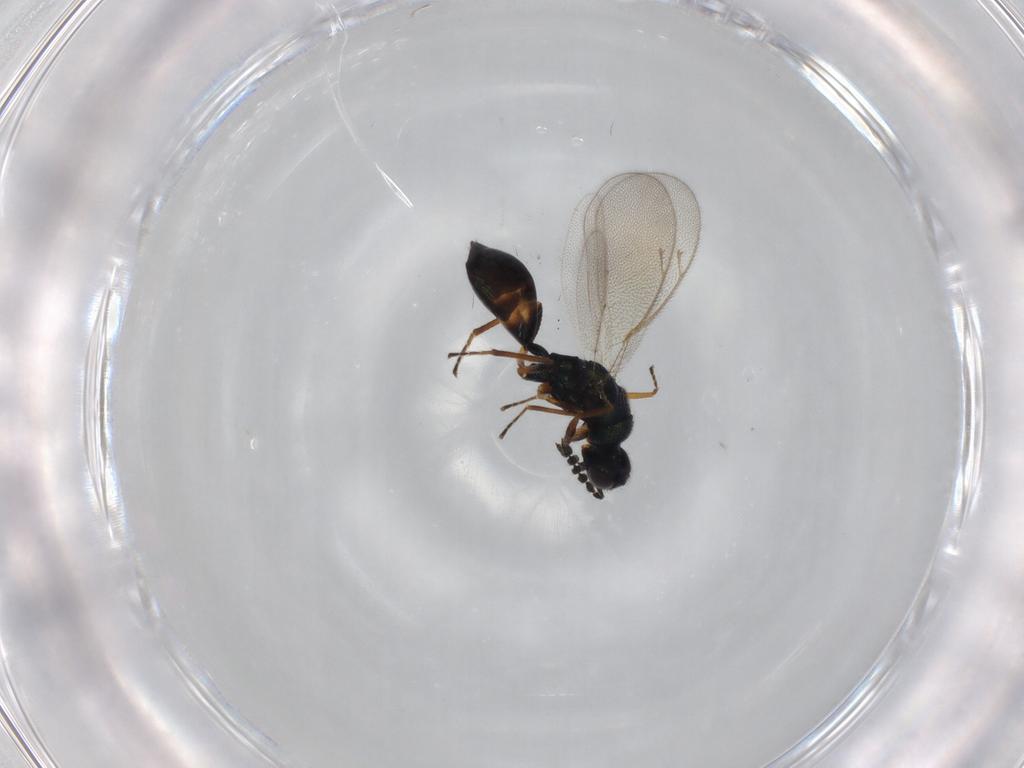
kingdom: Animalia
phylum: Arthropoda
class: Insecta
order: Hymenoptera
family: Eulophidae
